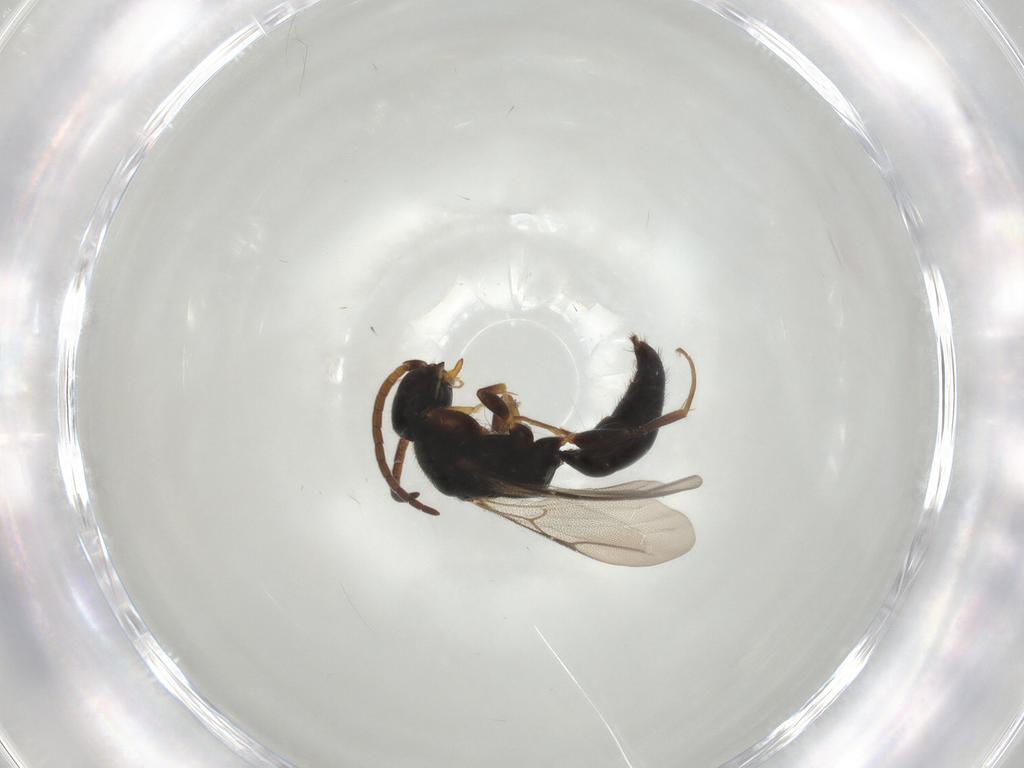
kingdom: Animalia
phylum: Arthropoda
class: Insecta
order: Hymenoptera
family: Bethylidae
